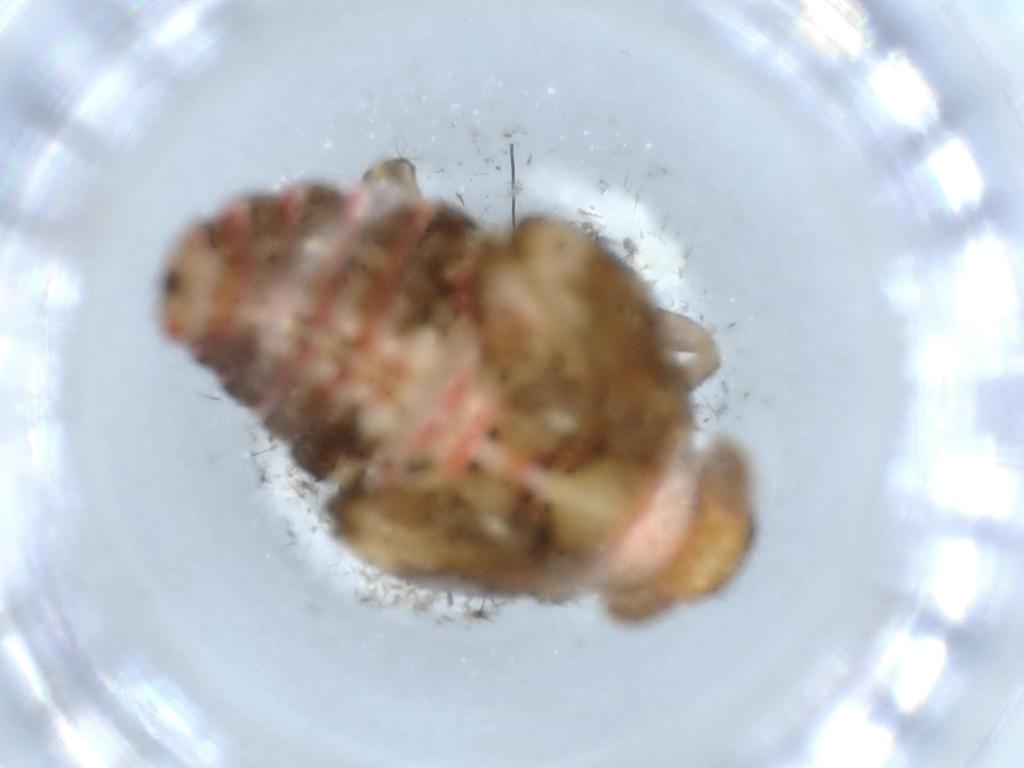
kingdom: Animalia
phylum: Arthropoda
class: Insecta
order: Hemiptera
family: Issidae
